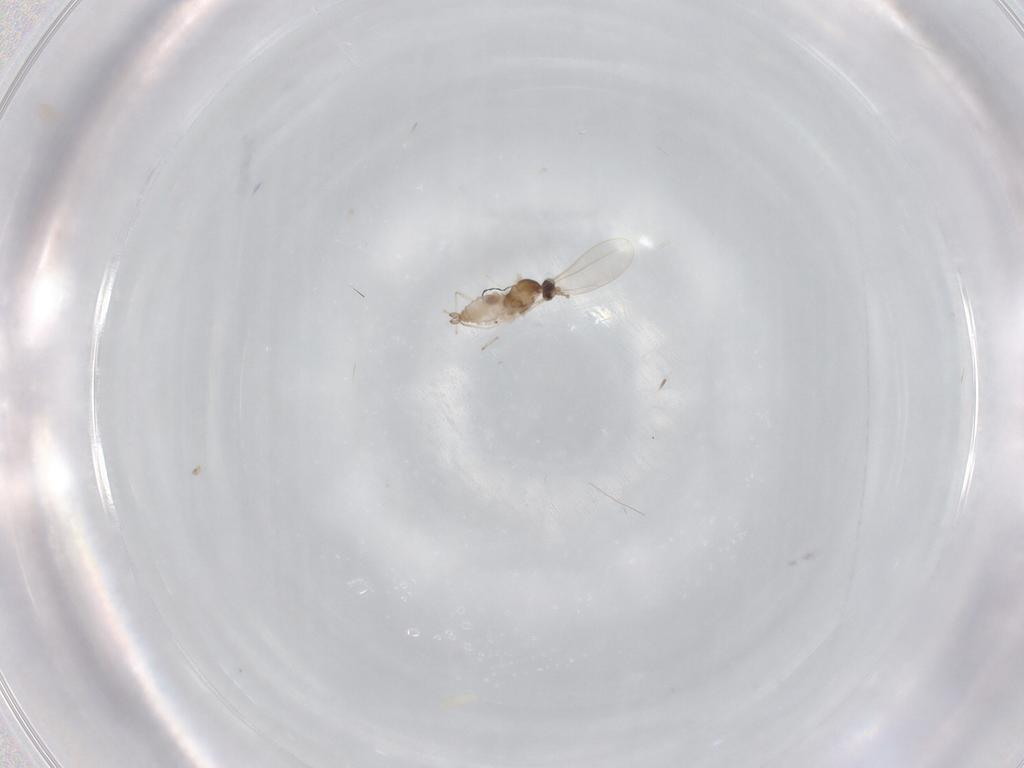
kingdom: Animalia
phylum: Arthropoda
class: Insecta
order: Diptera
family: Cecidomyiidae
